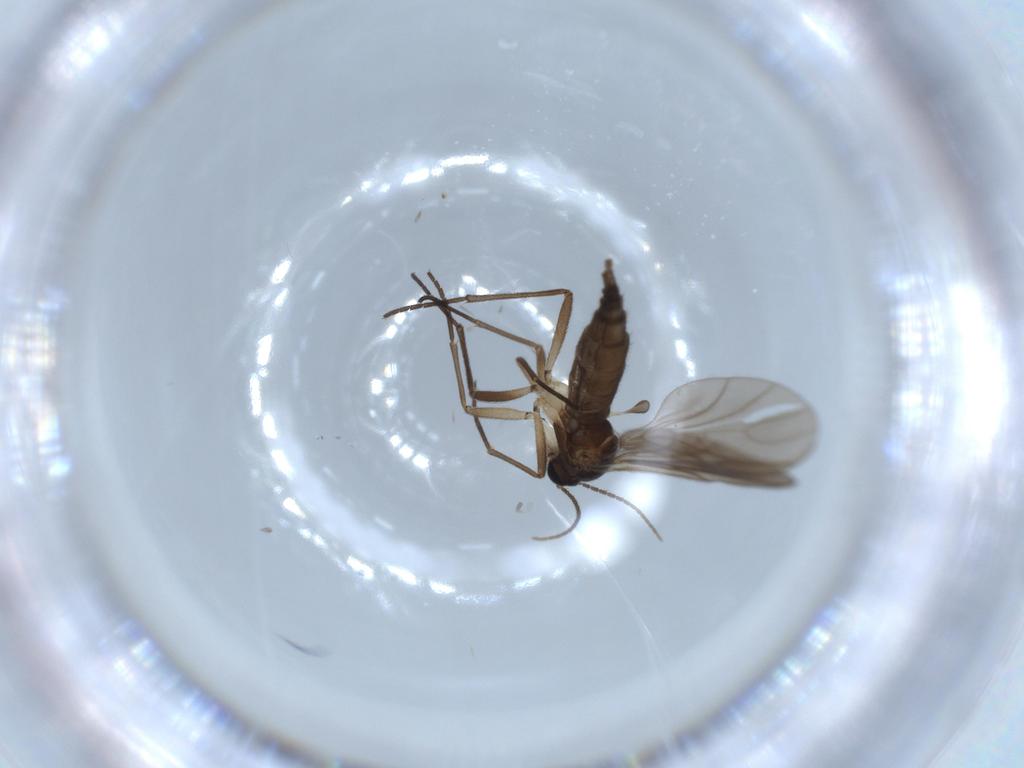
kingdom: Animalia
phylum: Arthropoda
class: Insecta
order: Diptera
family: Sciaridae
